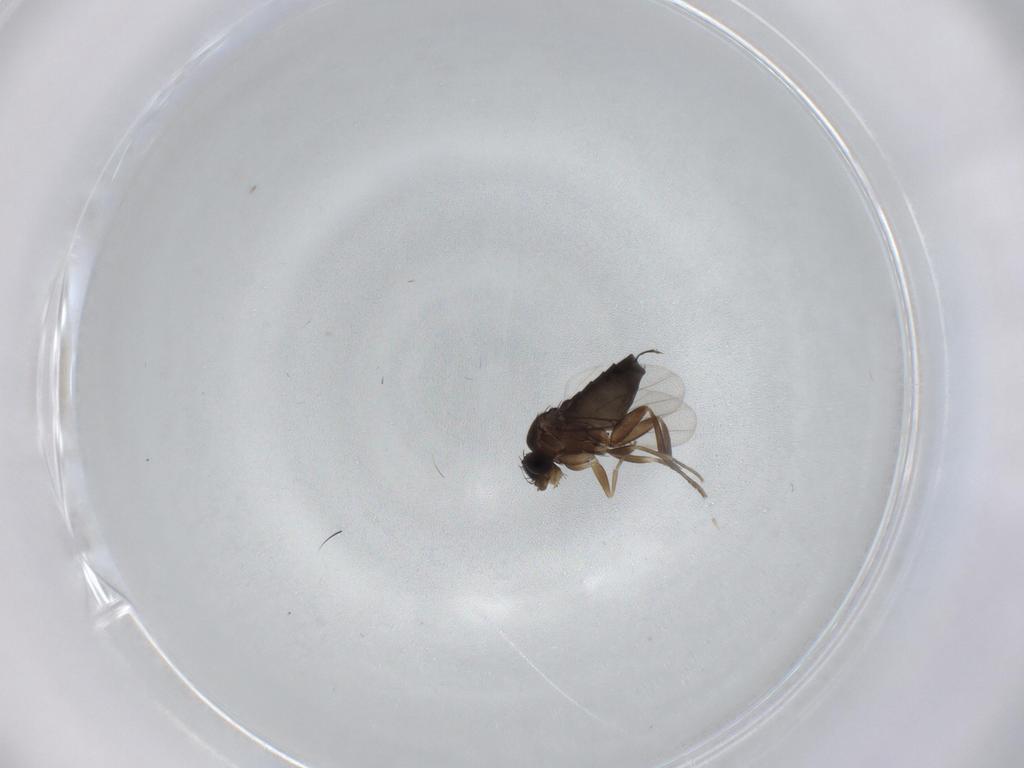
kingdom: Animalia
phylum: Arthropoda
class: Insecta
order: Diptera
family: Phoridae
